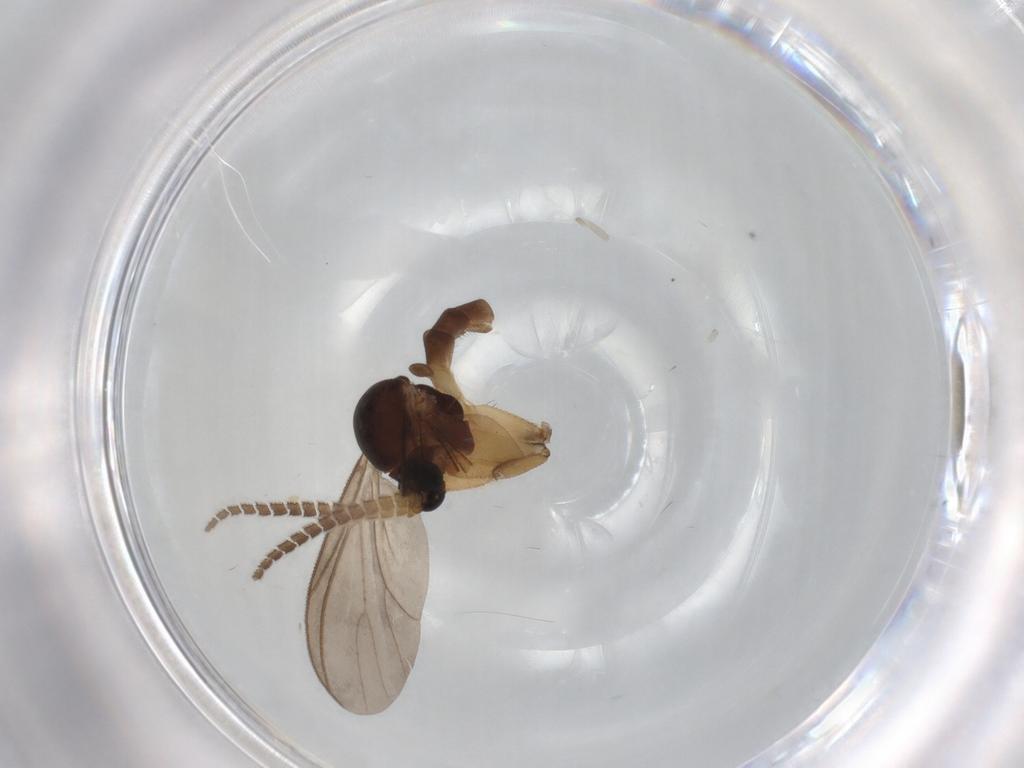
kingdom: Animalia
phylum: Arthropoda
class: Insecta
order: Diptera
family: Mycetophilidae
